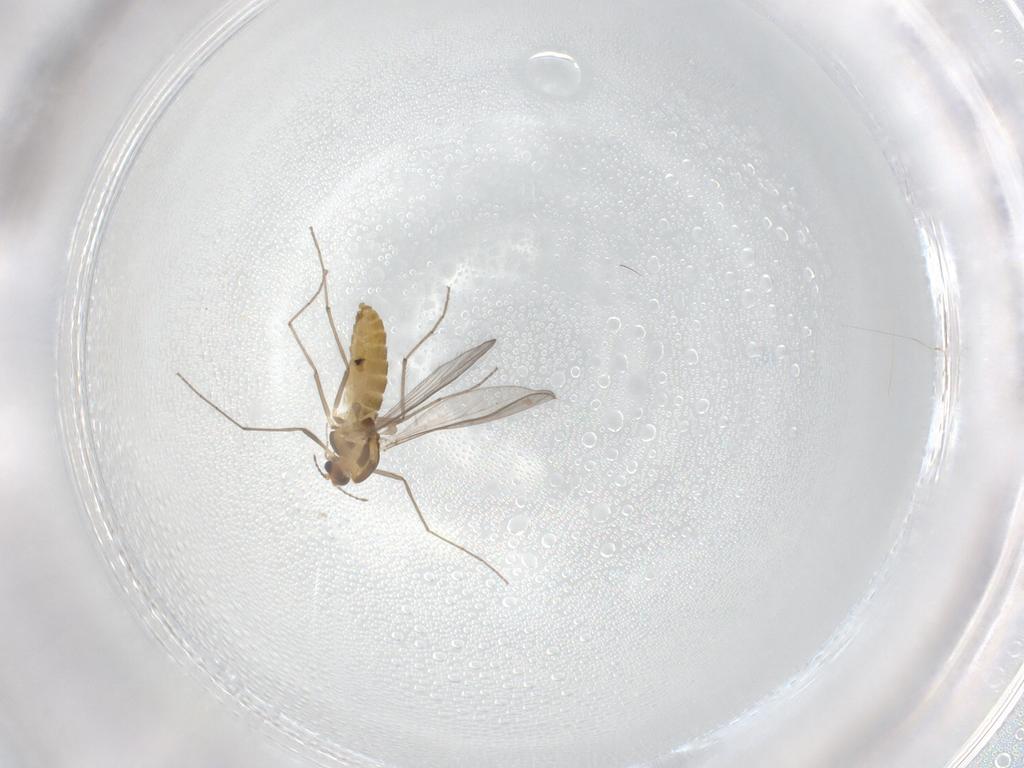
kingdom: Animalia
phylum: Arthropoda
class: Insecta
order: Diptera
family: Chironomidae
